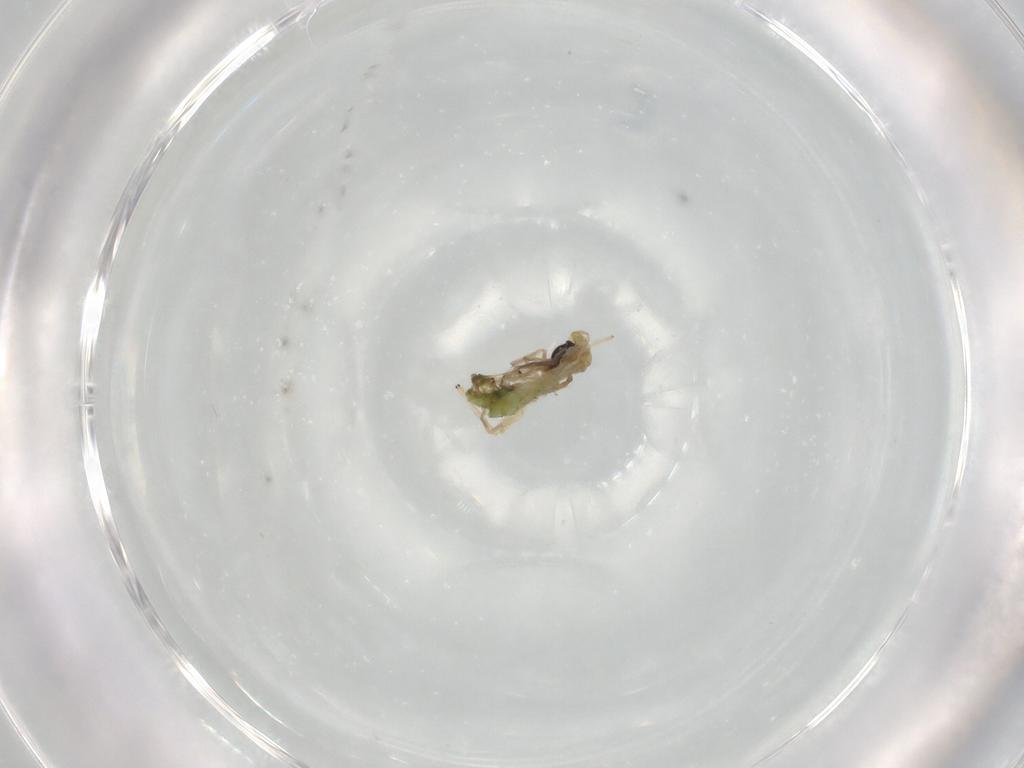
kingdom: Animalia
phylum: Arthropoda
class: Insecta
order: Diptera
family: Chironomidae
